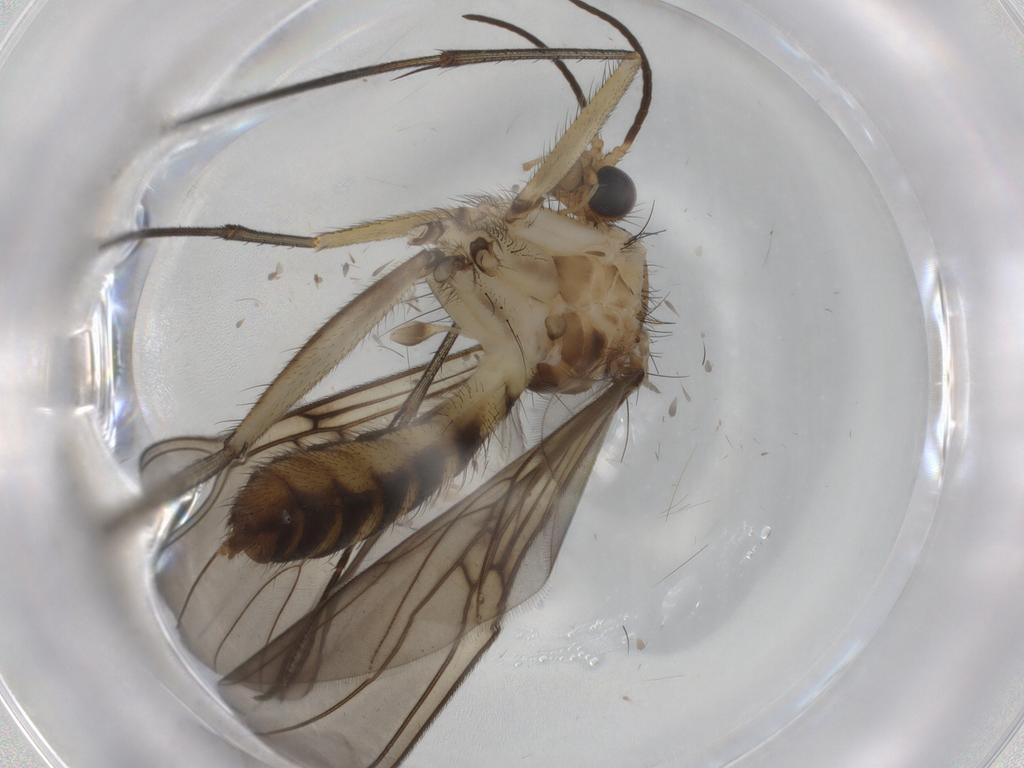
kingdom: Animalia
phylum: Arthropoda
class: Insecta
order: Diptera
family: Mycetophilidae
